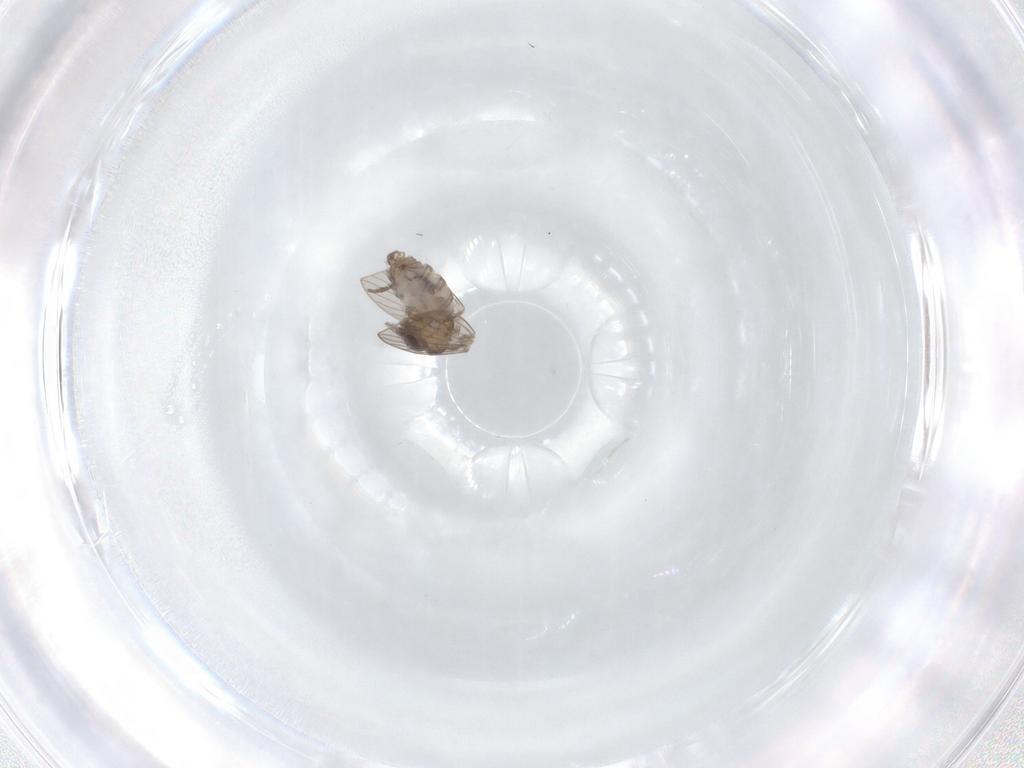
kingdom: Animalia
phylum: Arthropoda
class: Insecta
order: Diptera
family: Psychodidae
